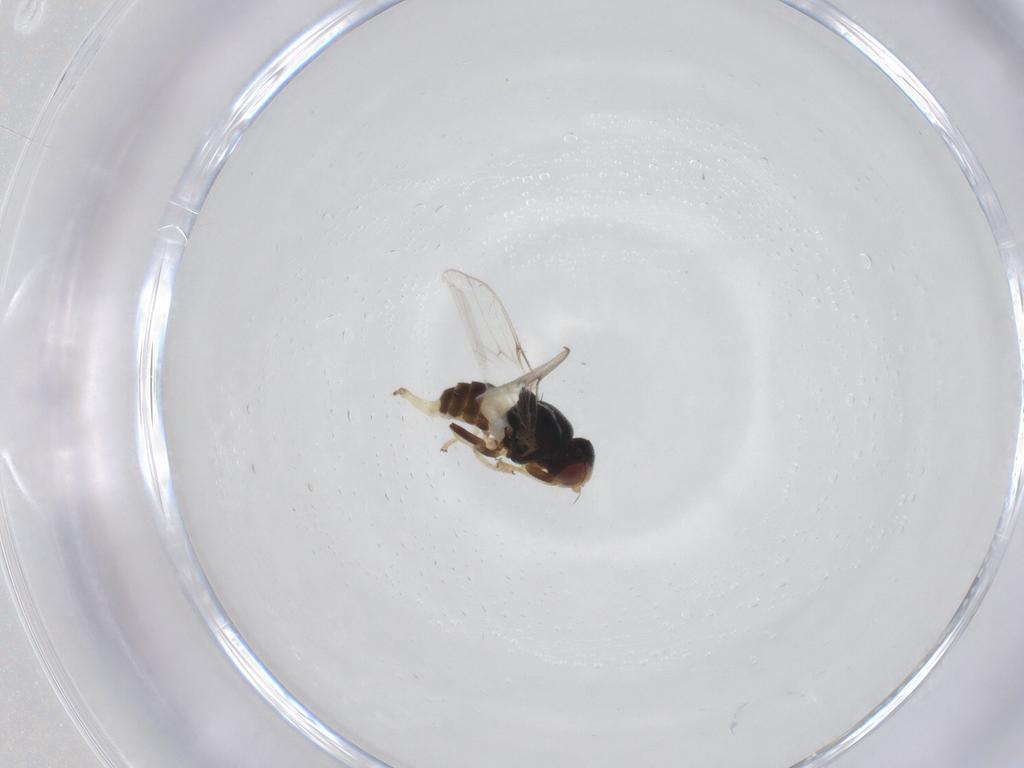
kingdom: Animalia
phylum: Arthropoda
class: Insecta
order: Diptera
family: Chloropidae
